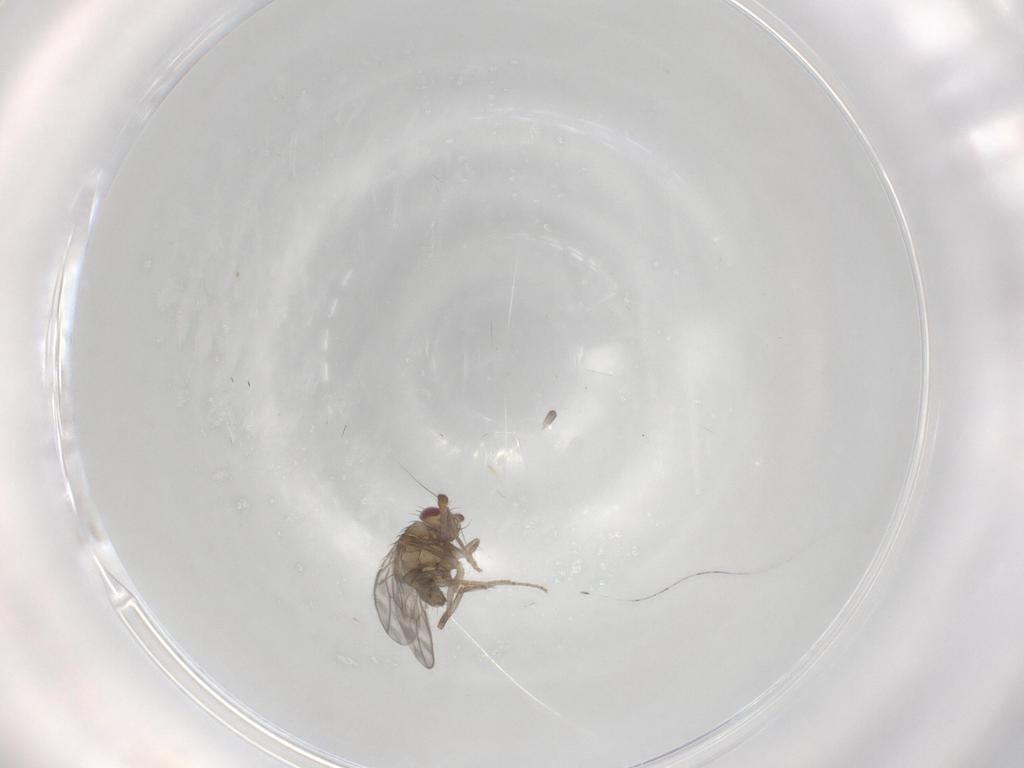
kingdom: Animalia
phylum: Arthropoda
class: Insecta
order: Diptera
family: Sphaeroceridae
